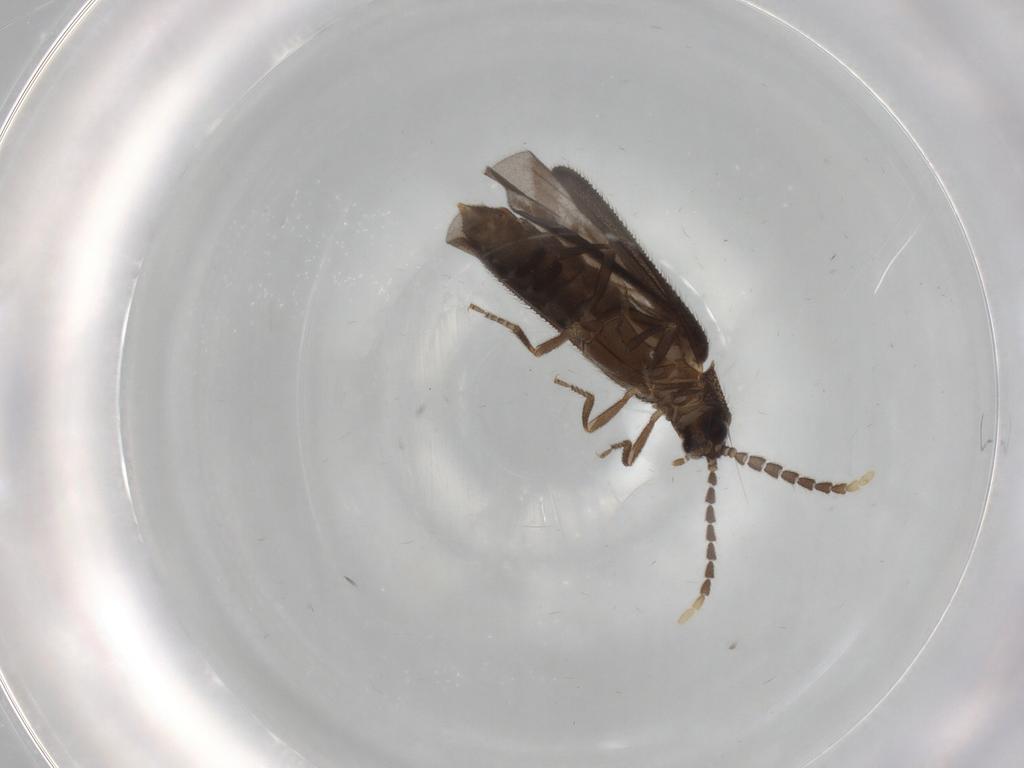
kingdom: Animalia
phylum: Arthropoda
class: Insecta
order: Coleoptera
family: Lycidae
